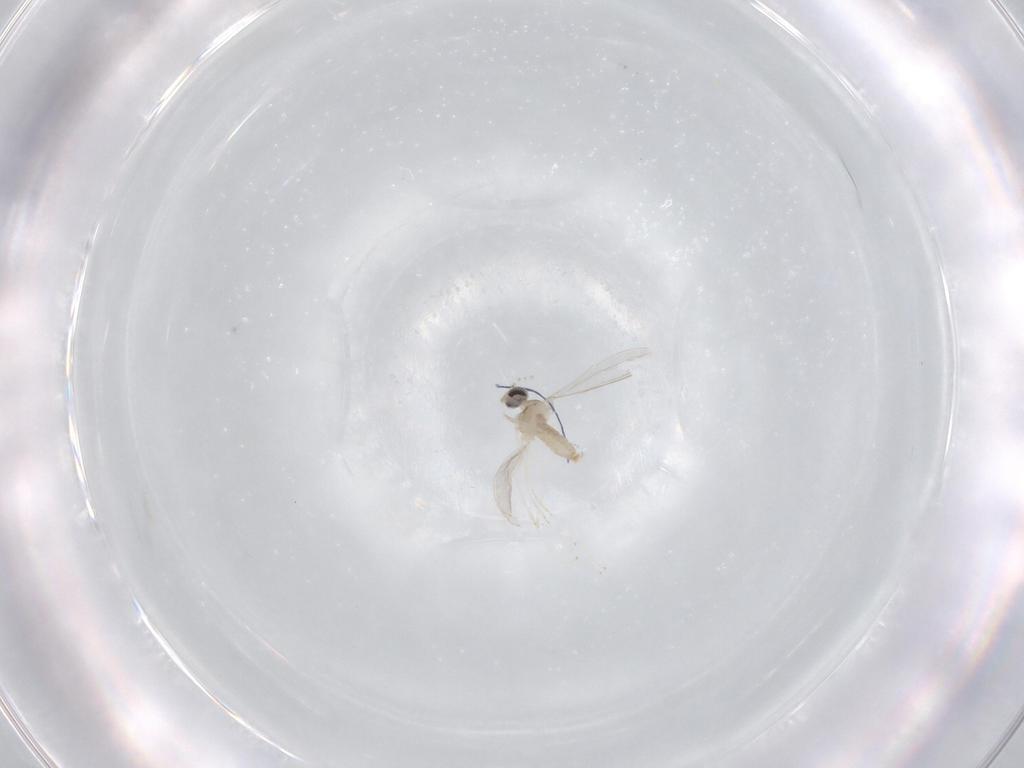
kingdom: Animalia
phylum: Arthropoda
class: Insecta
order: Diptera
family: Cecidomyiidae
